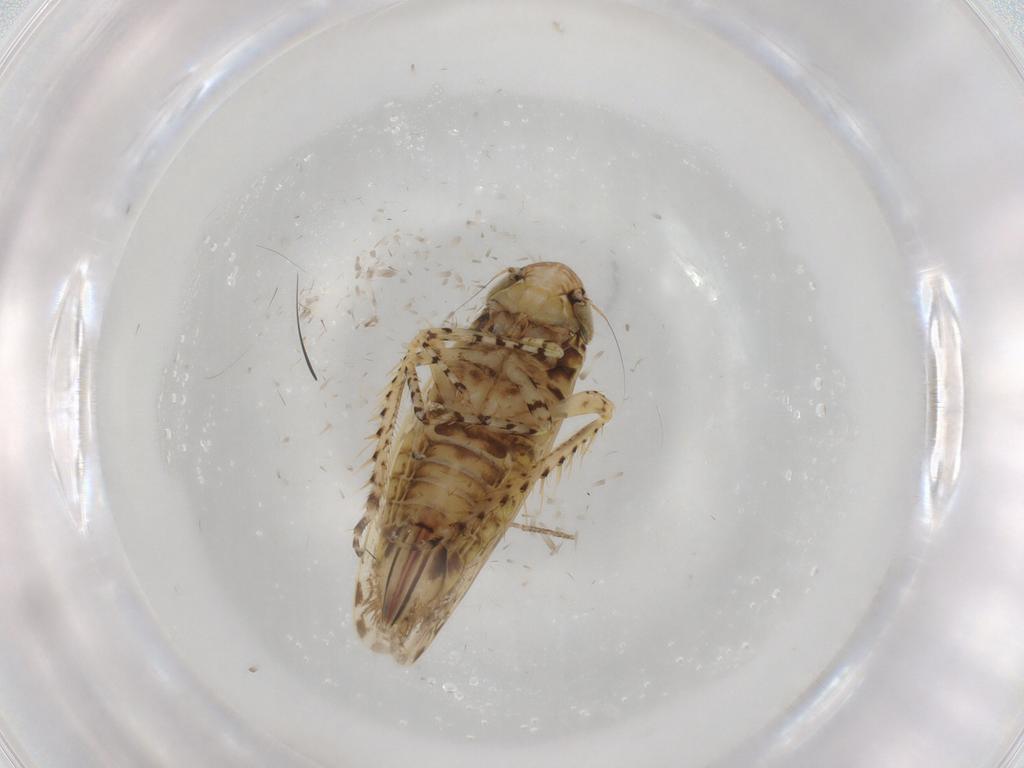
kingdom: Animalia
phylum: Arthropoda
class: Insecta
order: Hemiptera
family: Cicadellidae
